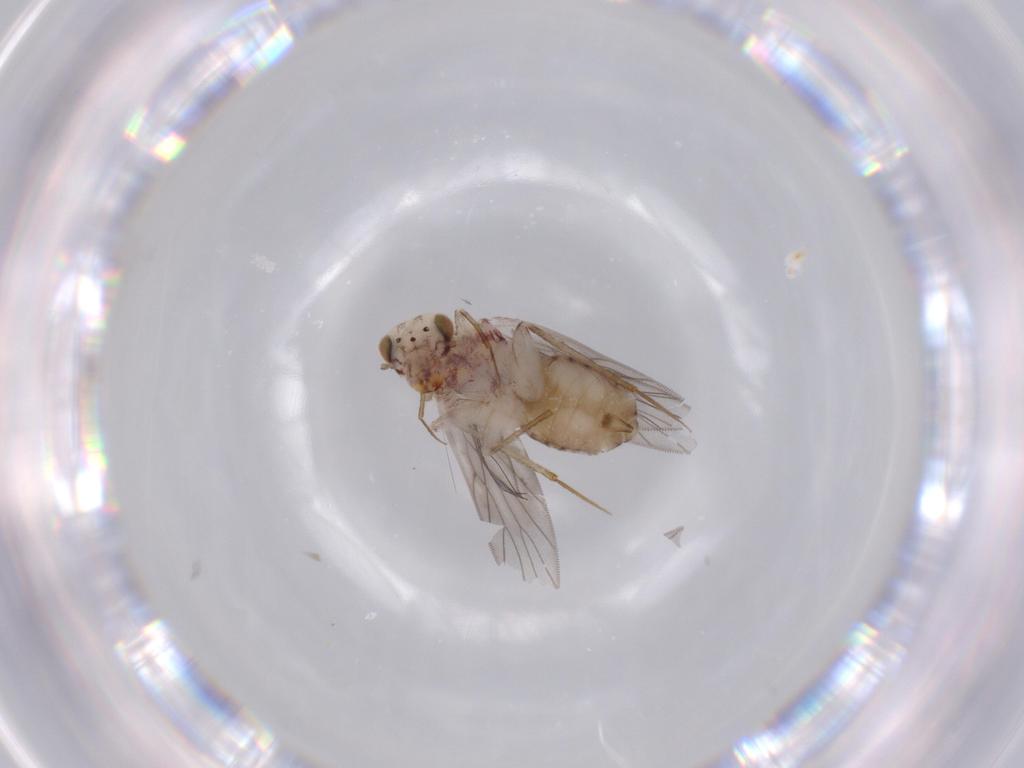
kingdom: Animalia
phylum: Arthropoda
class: Insecta
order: Psocodea
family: Lepidopsocidae
